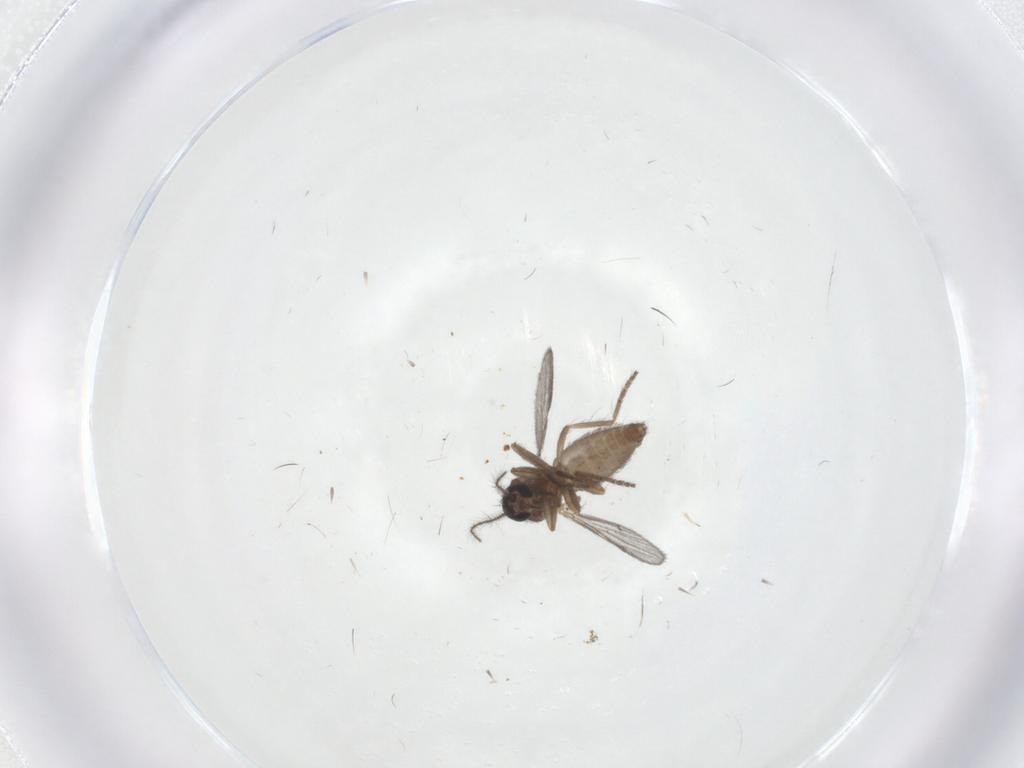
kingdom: Animalia
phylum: Arthropoda
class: Insecta
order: Diptera
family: Ceratopogonidae
